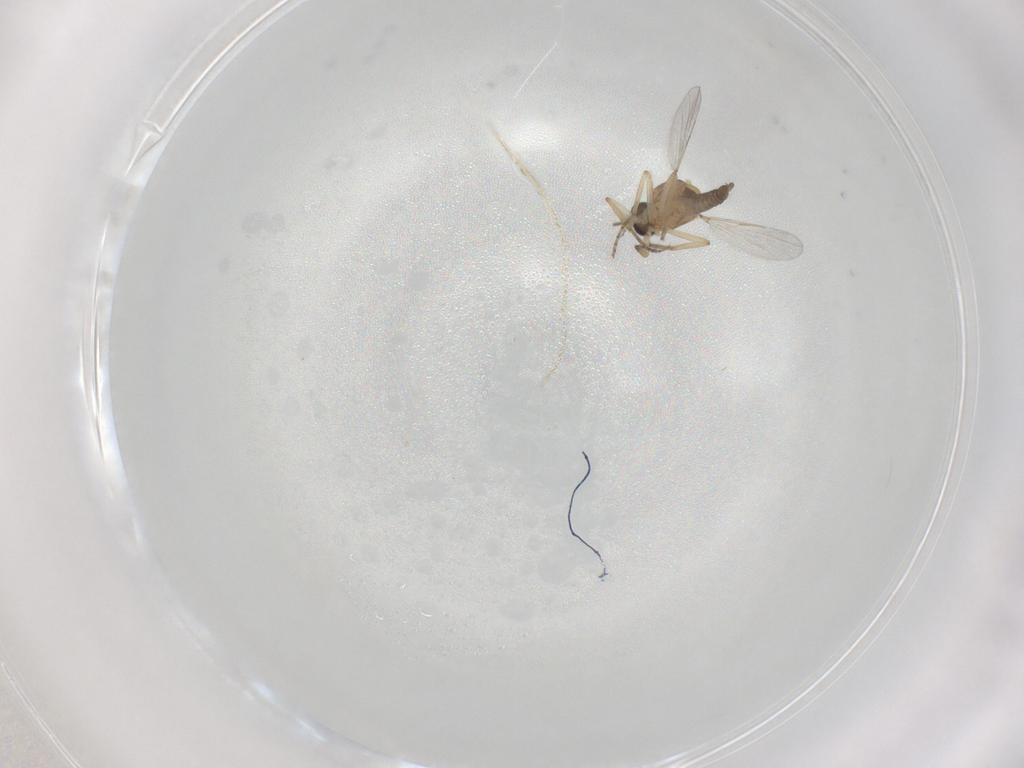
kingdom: Animalia
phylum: Arthropoda
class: Insecta
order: Diptera
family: Ceratopogonidae
